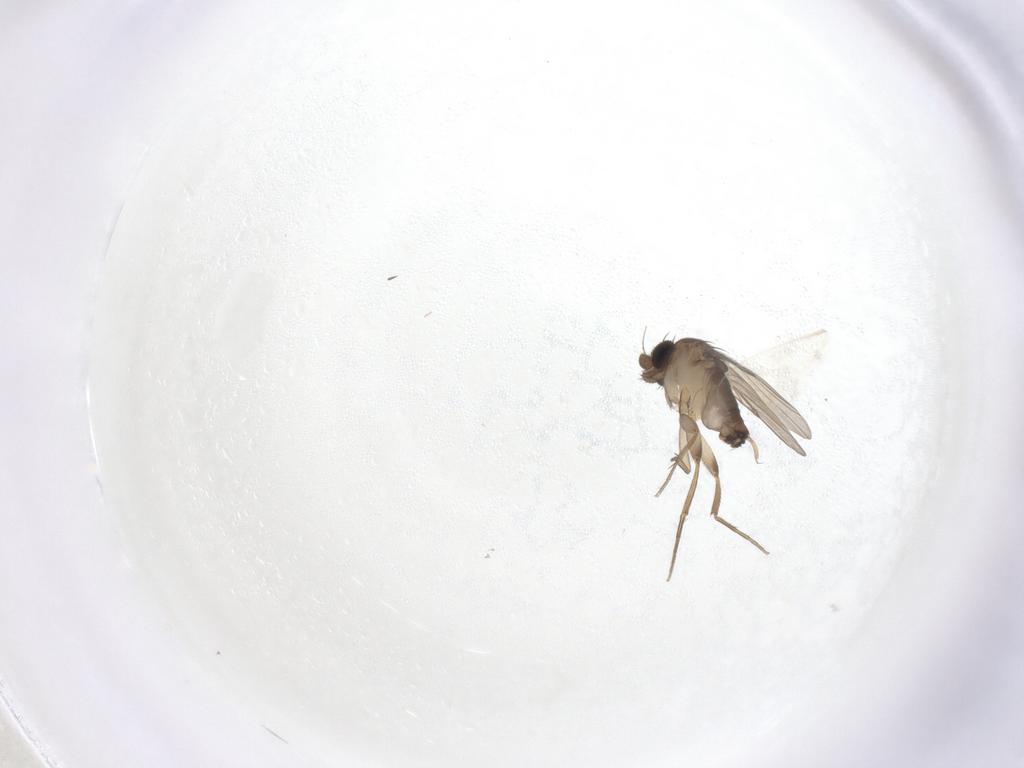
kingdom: Animalia
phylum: Arthropoda
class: Insecta
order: Diptera
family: Phoridae
